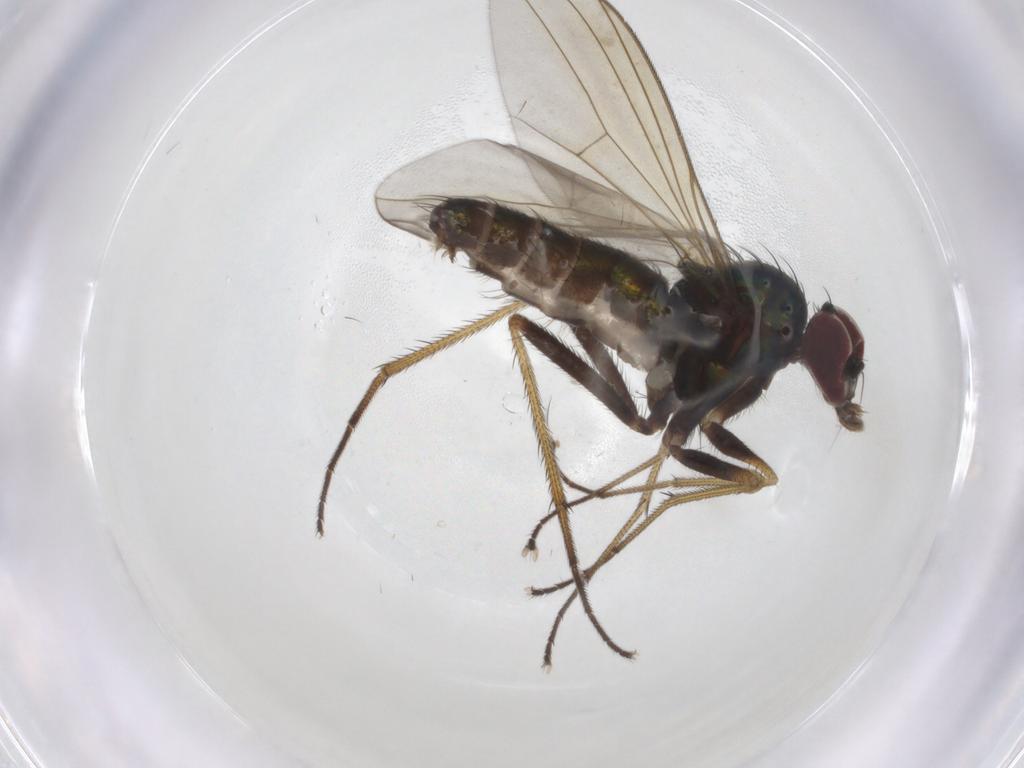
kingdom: Animalia
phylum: Arthropoda
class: Insecta
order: Diptera
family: Dolichopodidae
